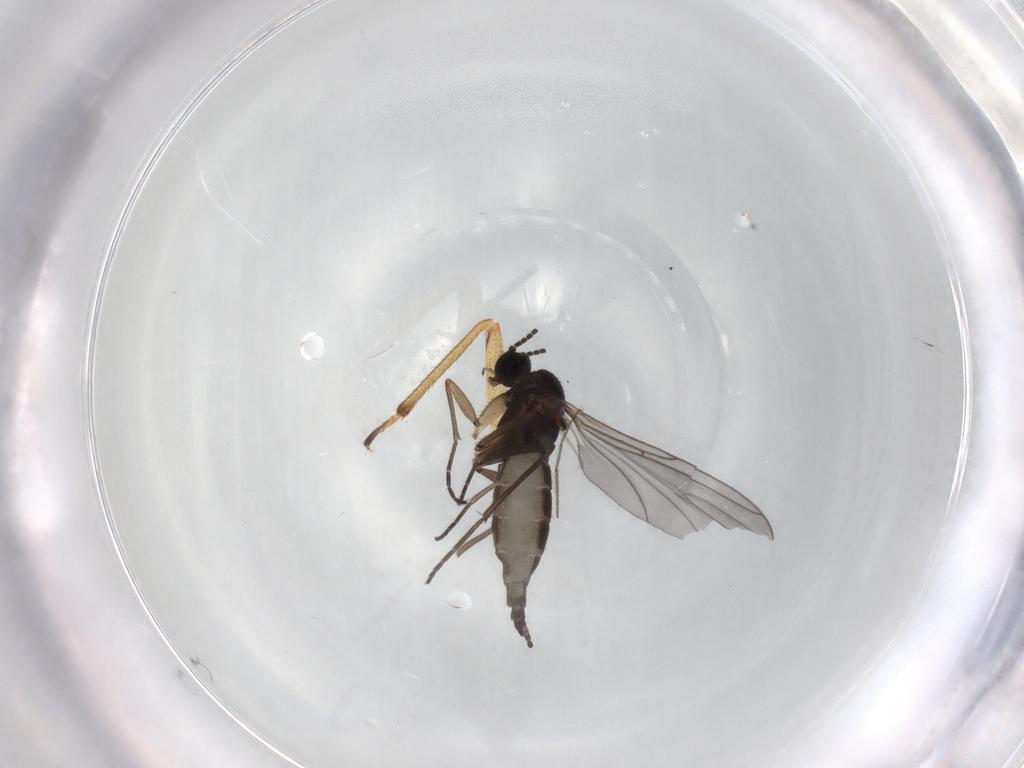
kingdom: Animalia
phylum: Arthropoda
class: Insecta
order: Diptera
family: Sciaridae
